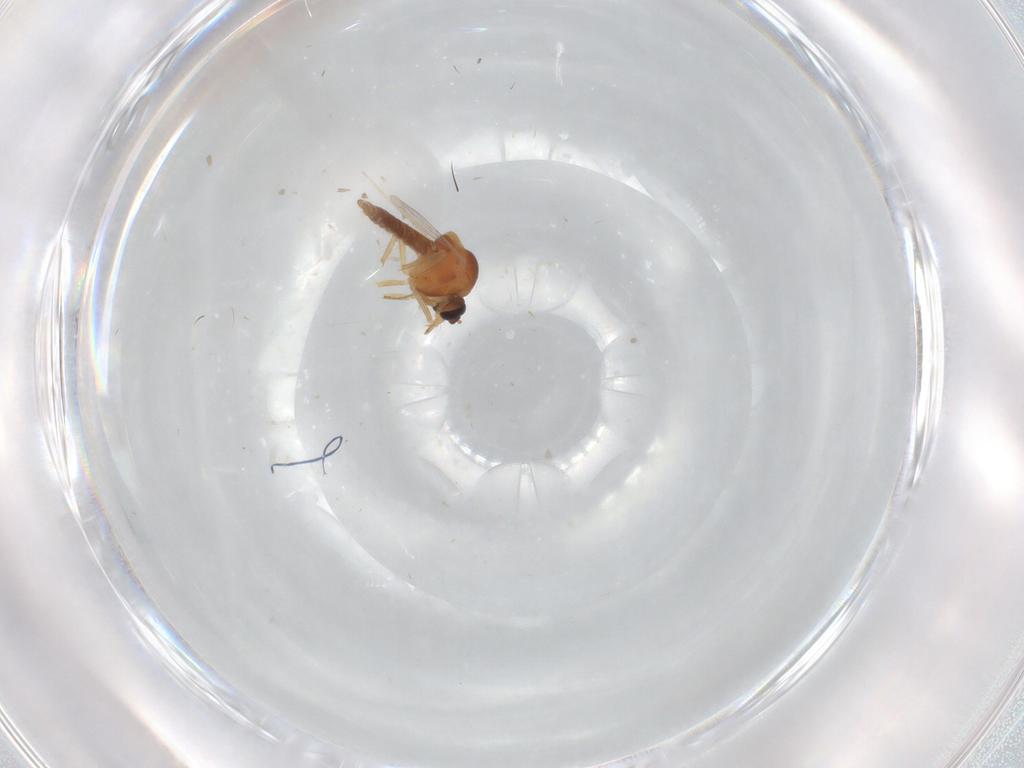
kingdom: Animalia
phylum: Arthropoda
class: Insecta
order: Diptera
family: Ceratopogonidae
